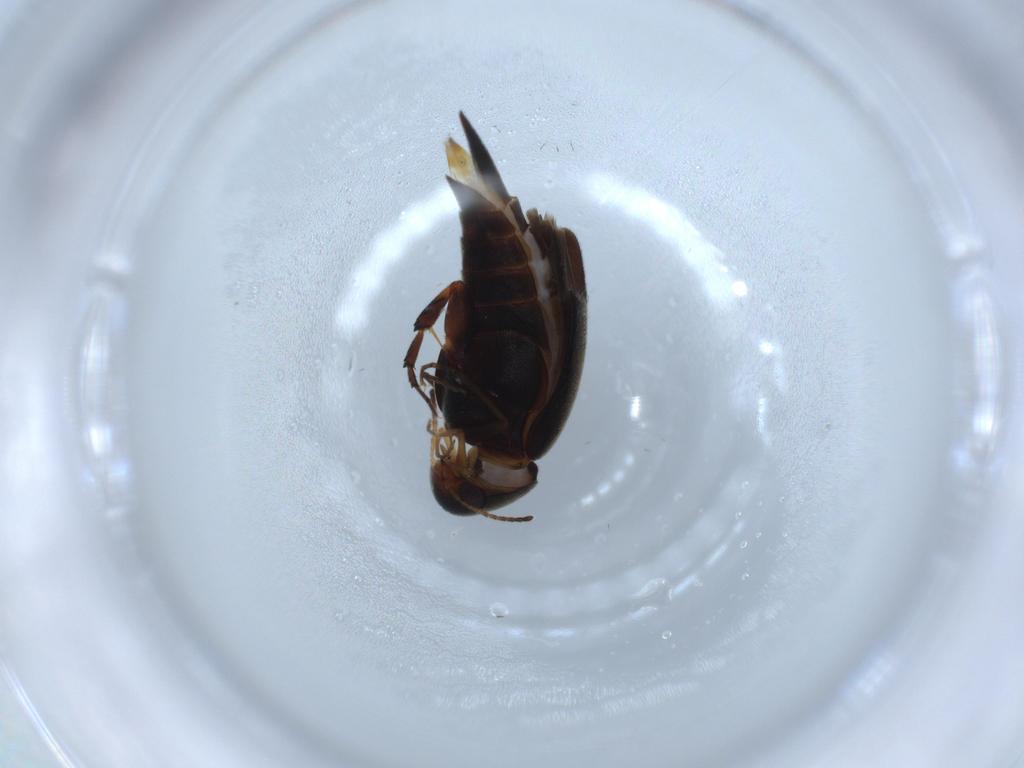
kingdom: Animalia
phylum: Arthropoda
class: Insecta
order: Coleoptera
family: Mordellidae
